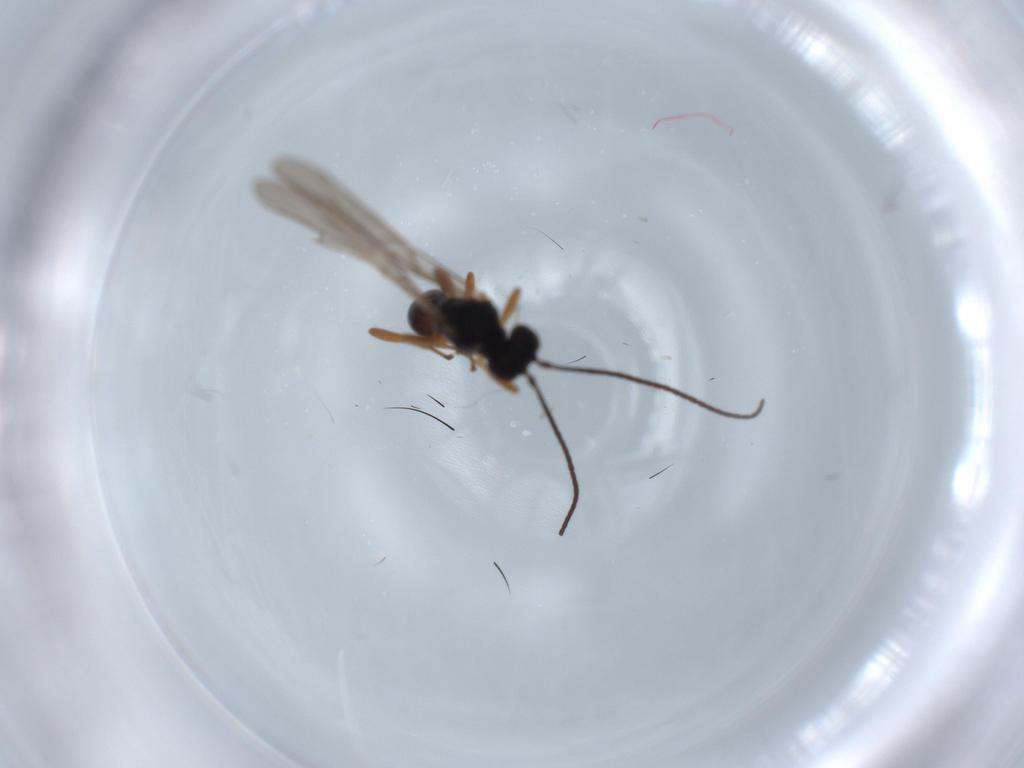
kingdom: Animalia
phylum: Arthropoda
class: Insecta
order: Hymenoptera
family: Braconidae
